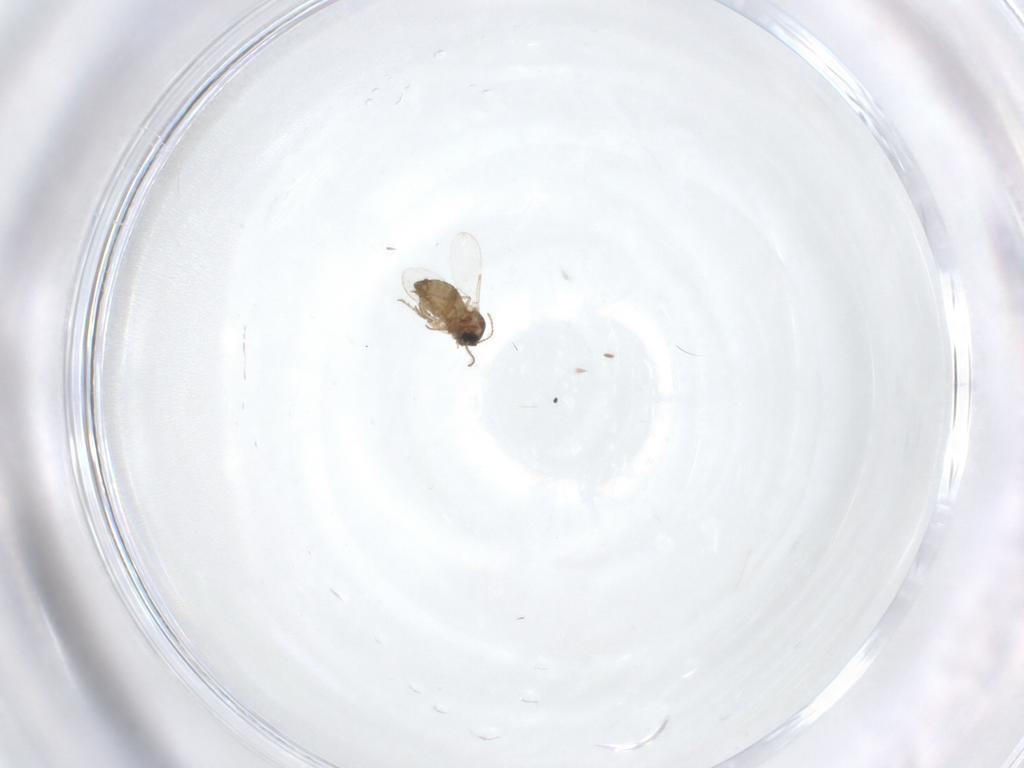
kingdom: Animalia
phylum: Arthropoda
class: Insecta
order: Diptera
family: Ceratopogonidae
